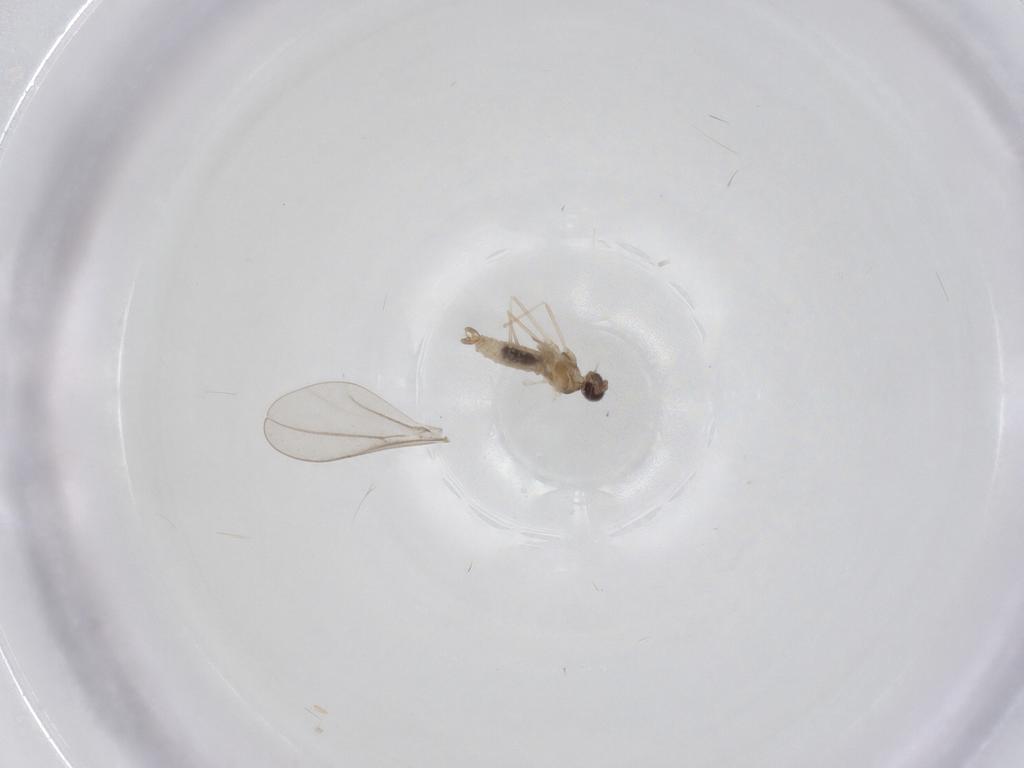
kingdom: Animalia
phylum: Arthropoda
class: Insecta
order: Diptera
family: Cecidomyiidae
